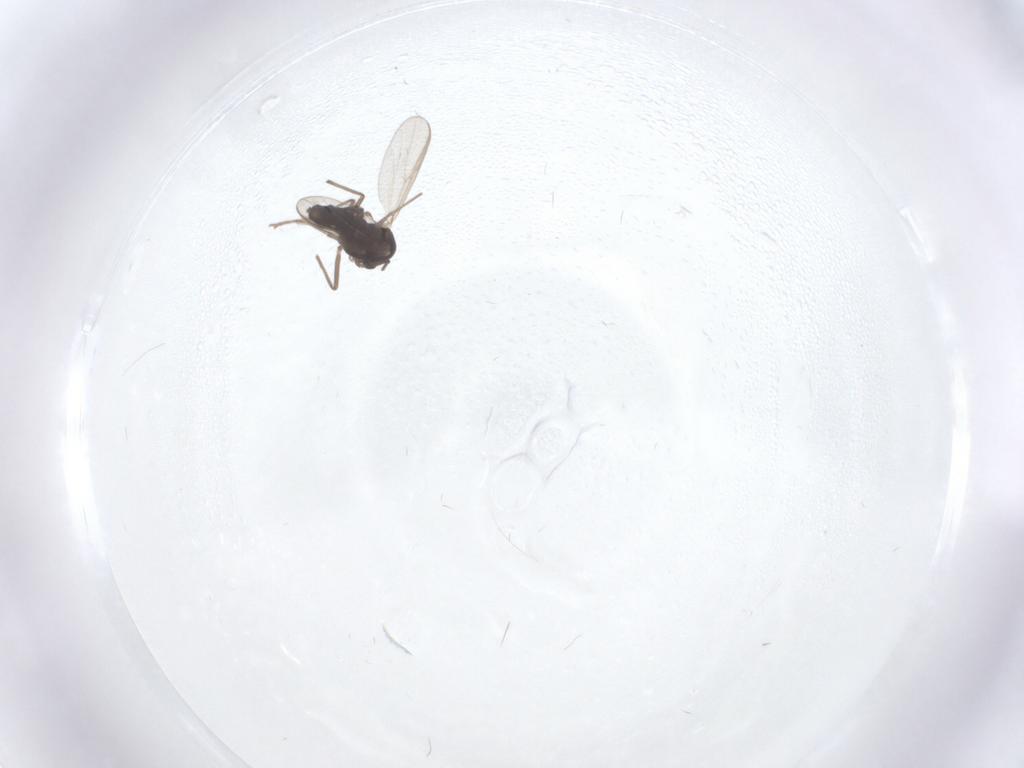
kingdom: Animalia
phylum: Arthropoda
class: Insecta
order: Diptera
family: Chironomidae
